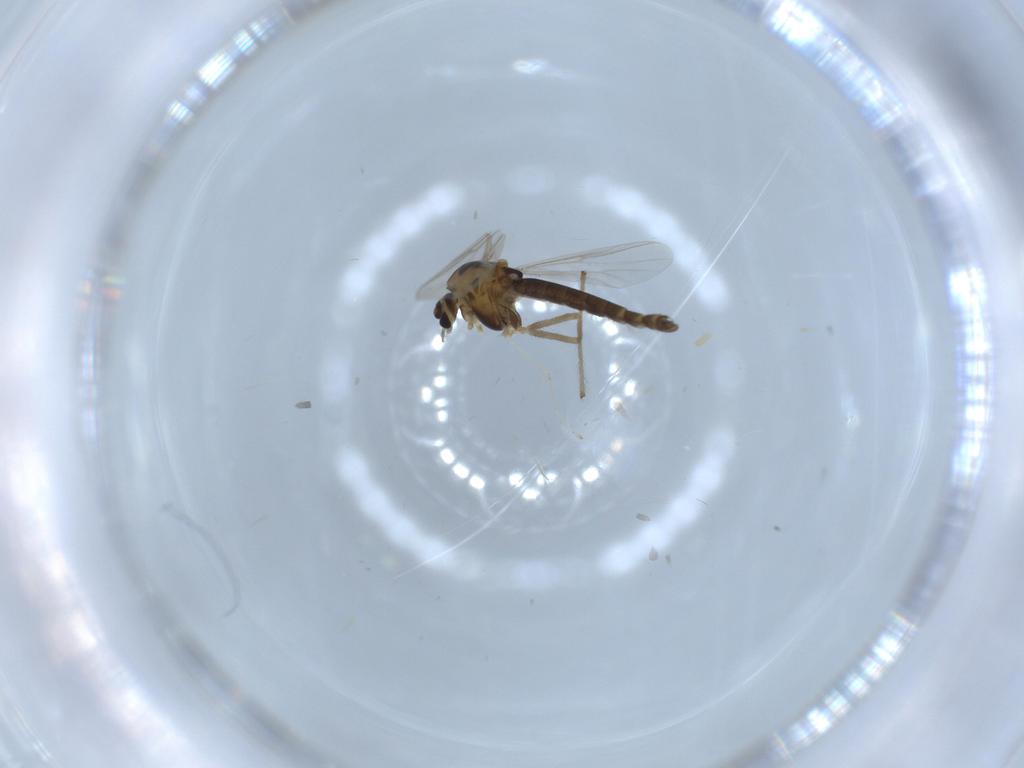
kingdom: Animalia
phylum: Arthropoda
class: Insecta
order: Diptera
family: Chironomidae
